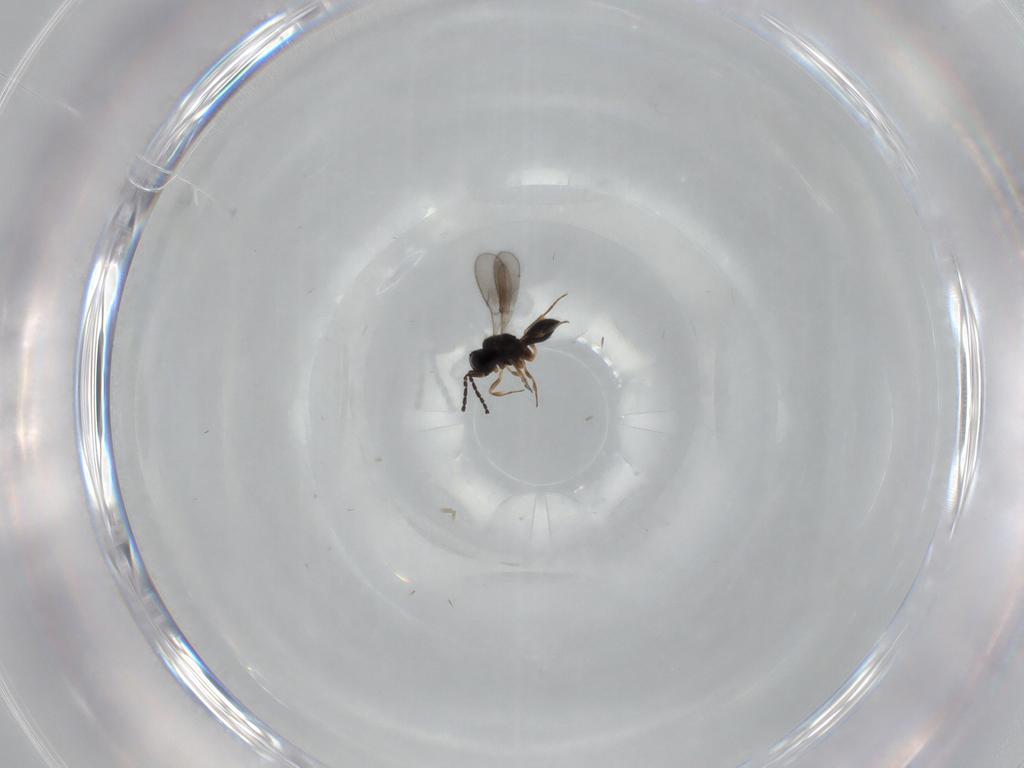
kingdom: Animalia
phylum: Arthropoda
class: Insecta
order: Hymenoptera
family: Scelionidae
